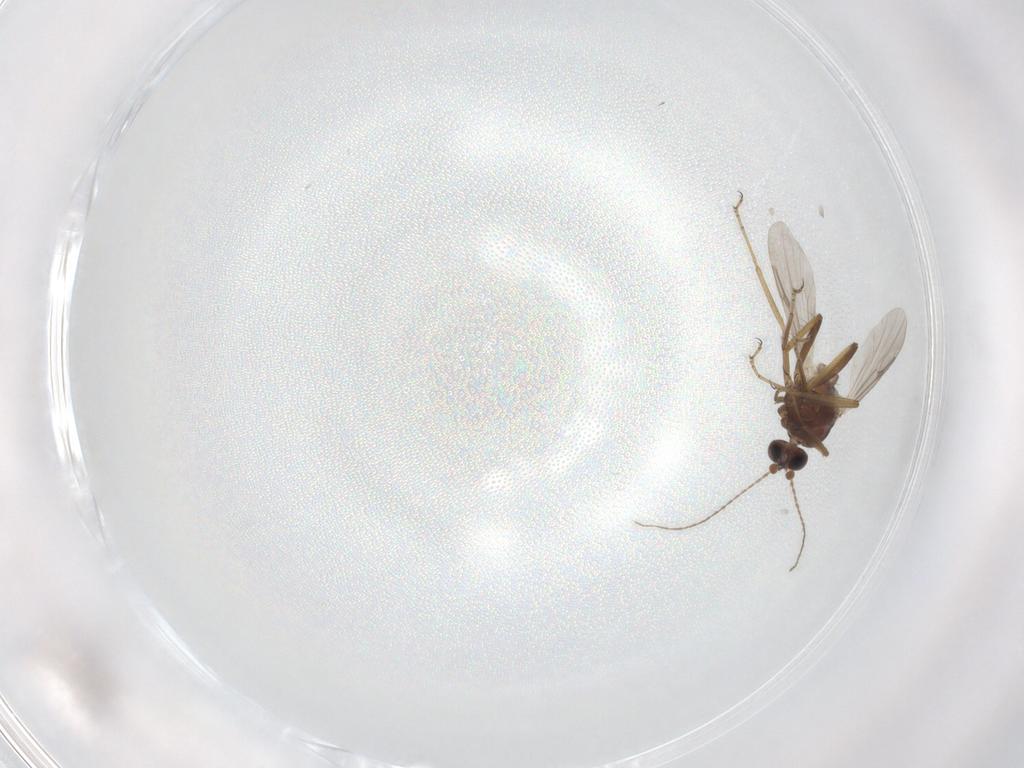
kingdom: Animalia
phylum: Arthropoda
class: Insecta
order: Diptera
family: Ceratopogonidae
